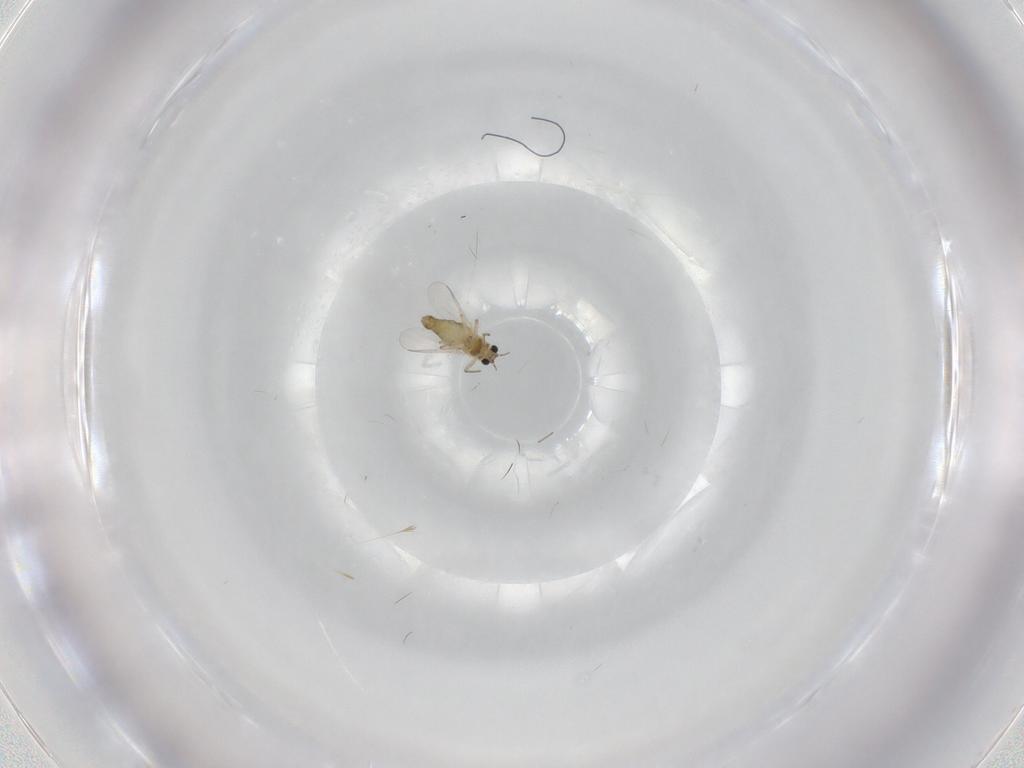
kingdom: Animalia
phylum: Arthropoda
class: Insecta
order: Diptera
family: Chironomidae
